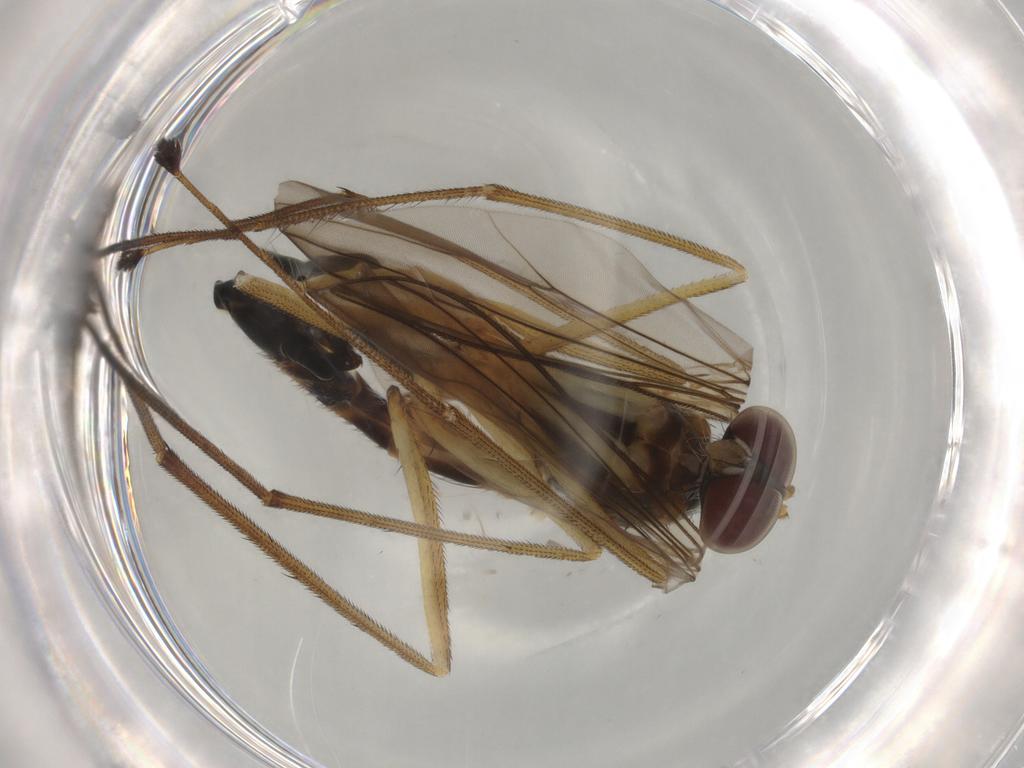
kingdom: Animalia
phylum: Arthropoda
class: Insecta
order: Diptera
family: Dolichopodidae
